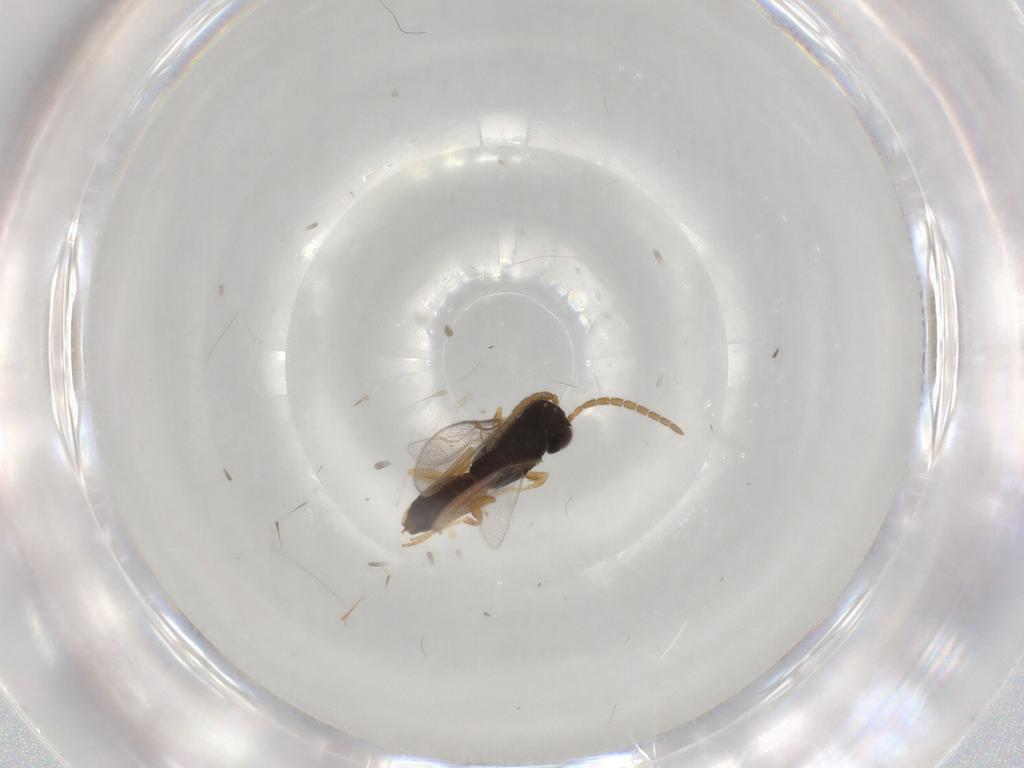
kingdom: Animalia
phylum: Arthropoda
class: Insecta
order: Hymenoptera
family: Dryinidae
